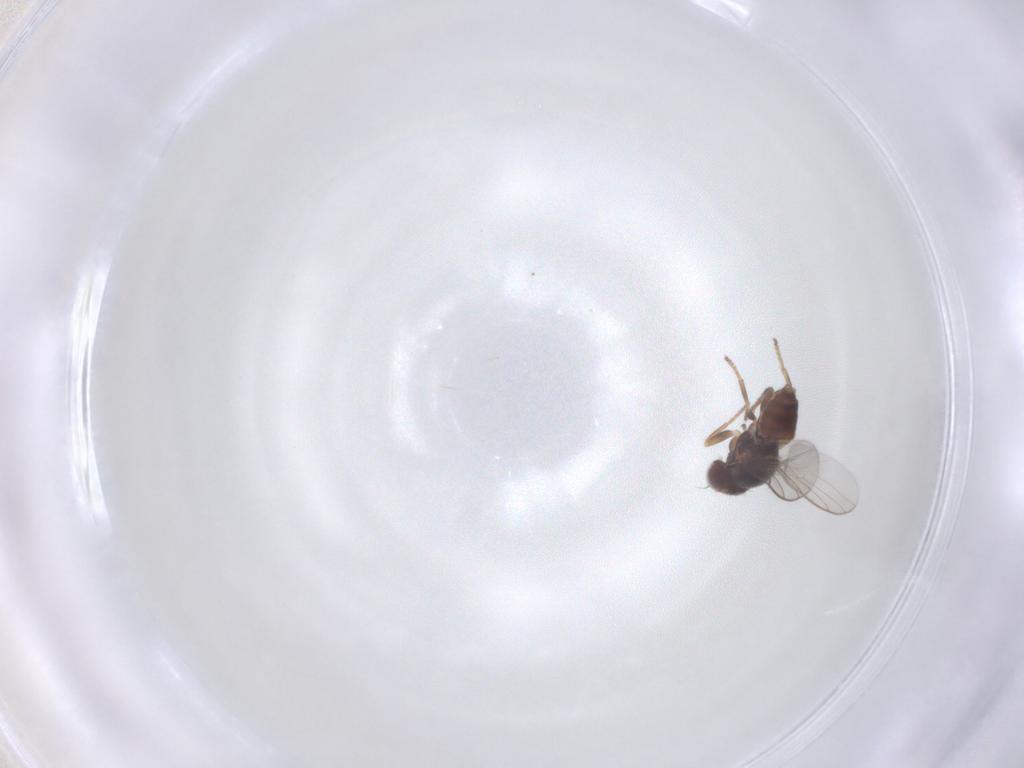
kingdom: Animalia
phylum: Arthropoda
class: Insecta
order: Diptera
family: Chloropidae
